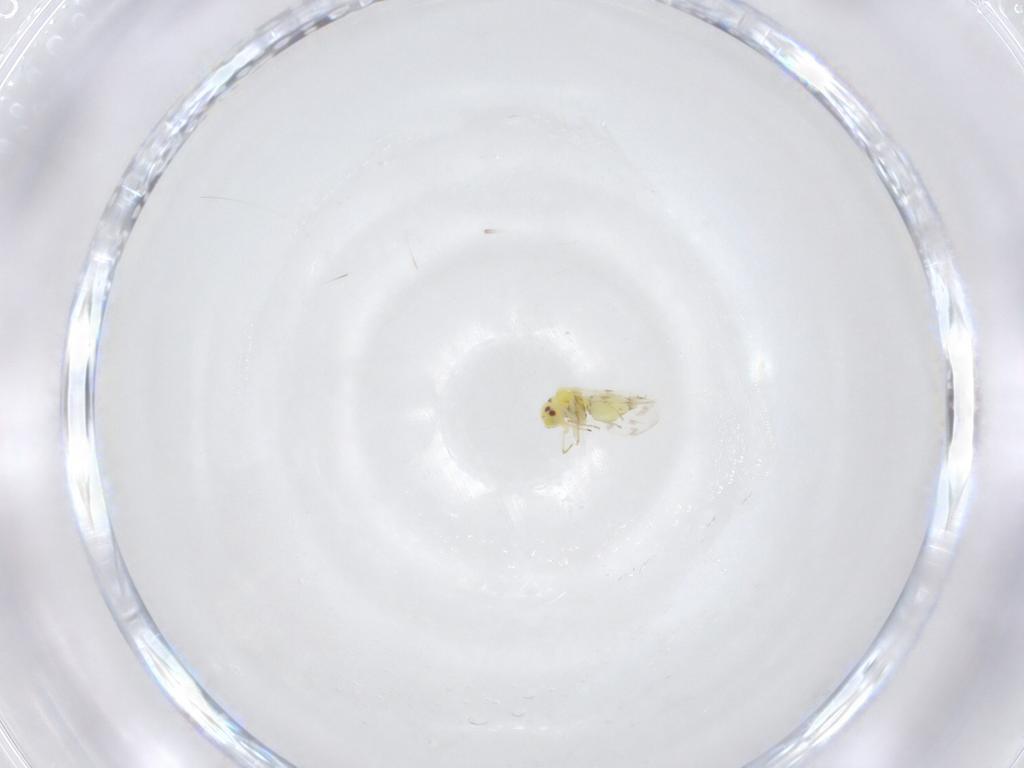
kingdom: Animalia
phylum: Arthropoda
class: Insecta
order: Hemiptera
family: Aleyrodidae
